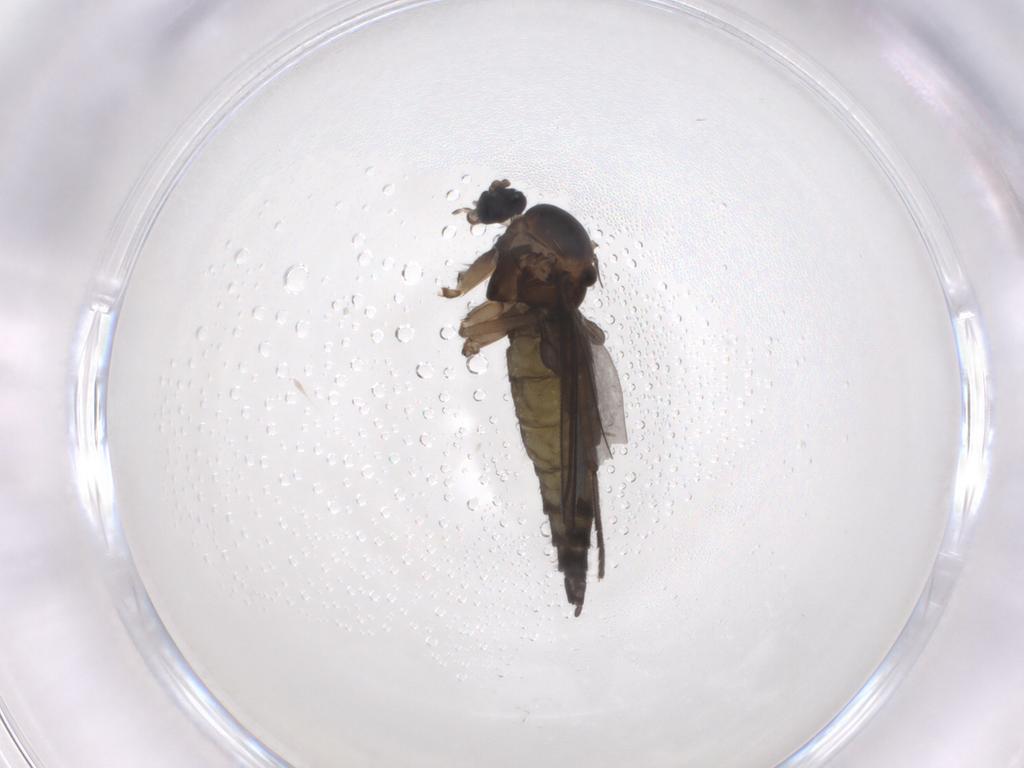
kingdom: Animalia
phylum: Arthropoda
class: Insecta
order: Diptera
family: Sciaridae
